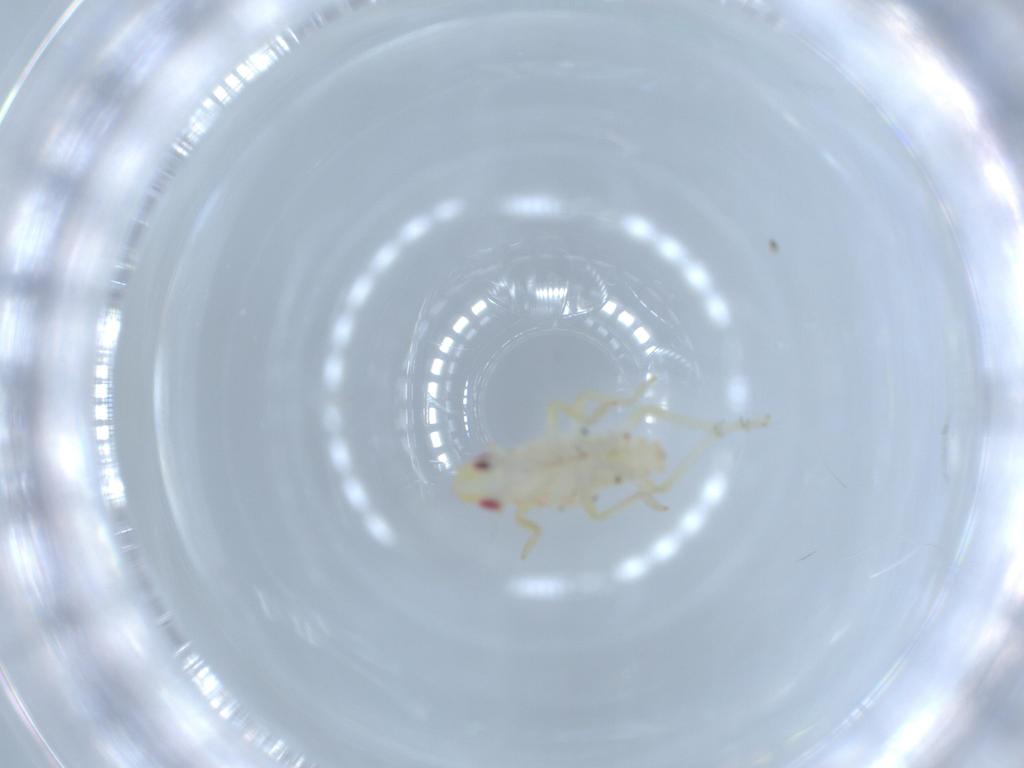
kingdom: Animalia
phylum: Arthropoda
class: Insecta
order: Hemiptera
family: Tropiduchidae
